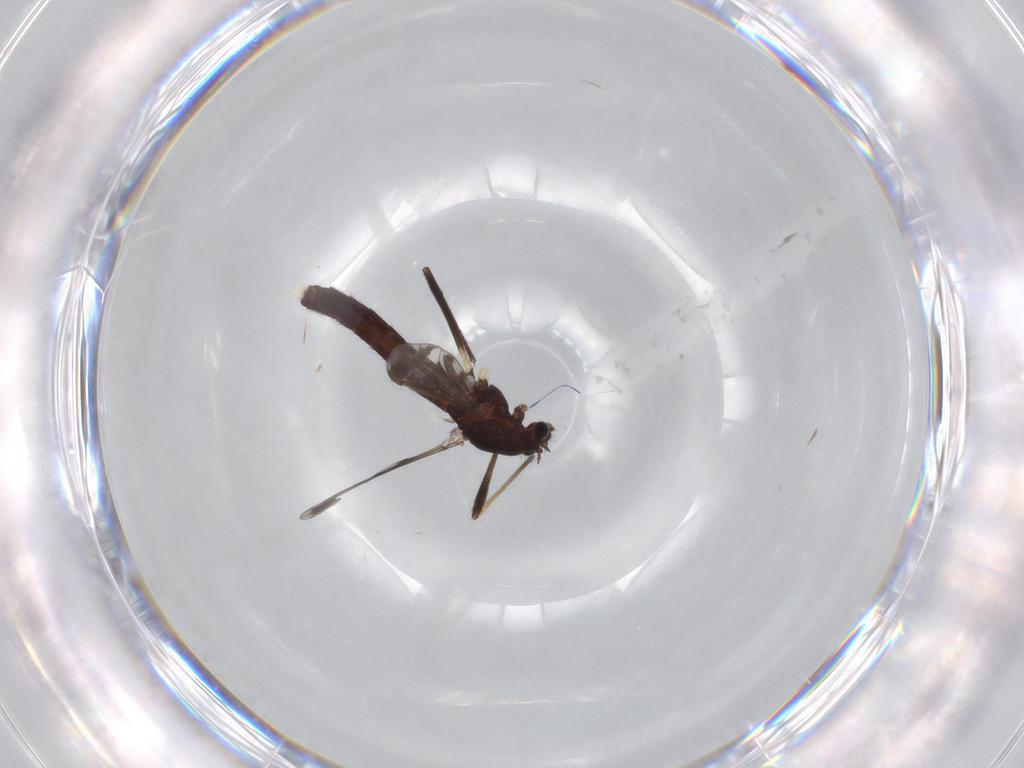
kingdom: Animalia
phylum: Arthropoda
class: Insecta
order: Diptera
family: Chironomidae
